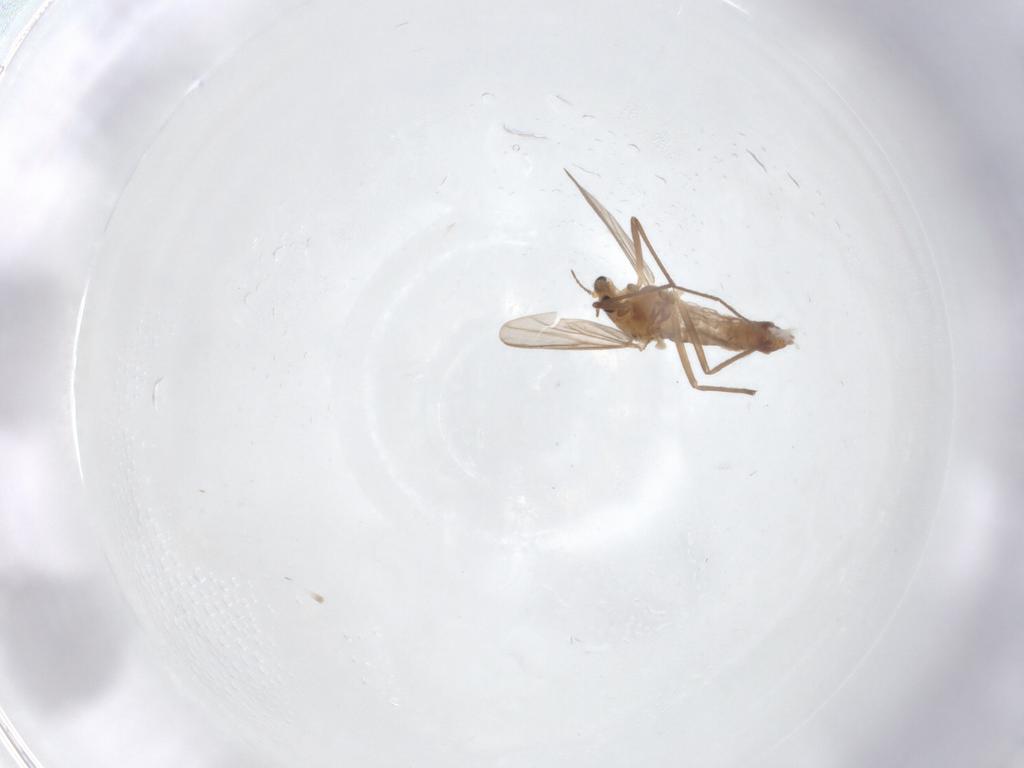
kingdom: Animalia
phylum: Arthropoda
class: Insecta
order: Diptera
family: Chironomidae
